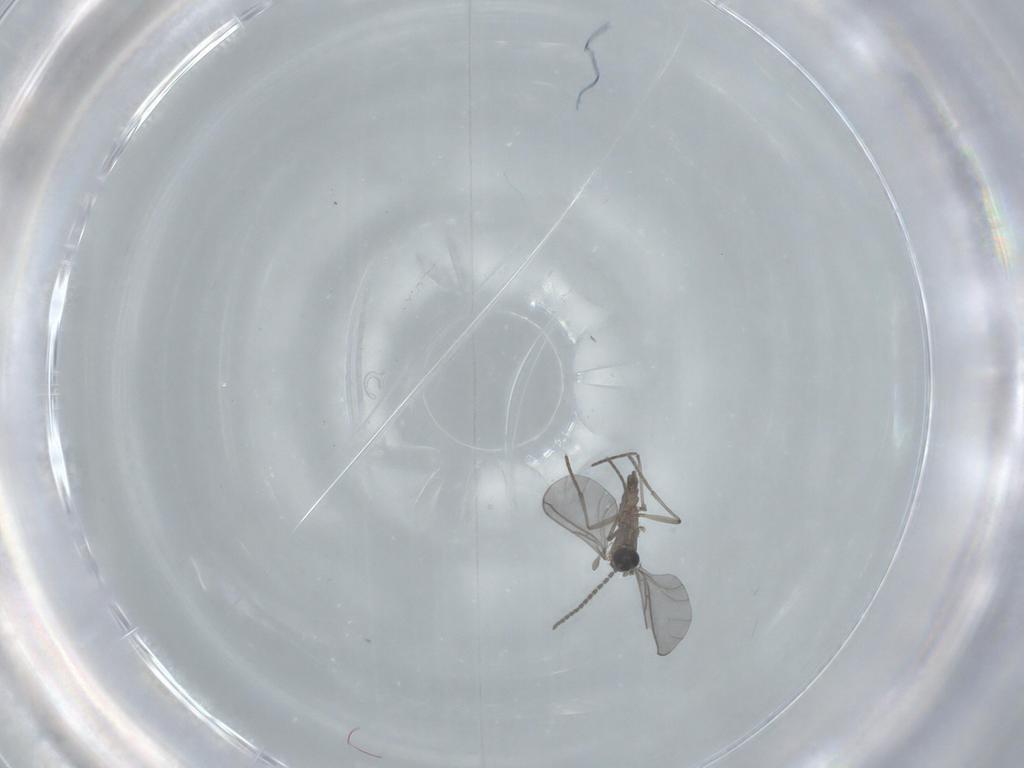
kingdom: Animalia
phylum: Arthropoda
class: Insecta
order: Diptera
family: Sciaridae
